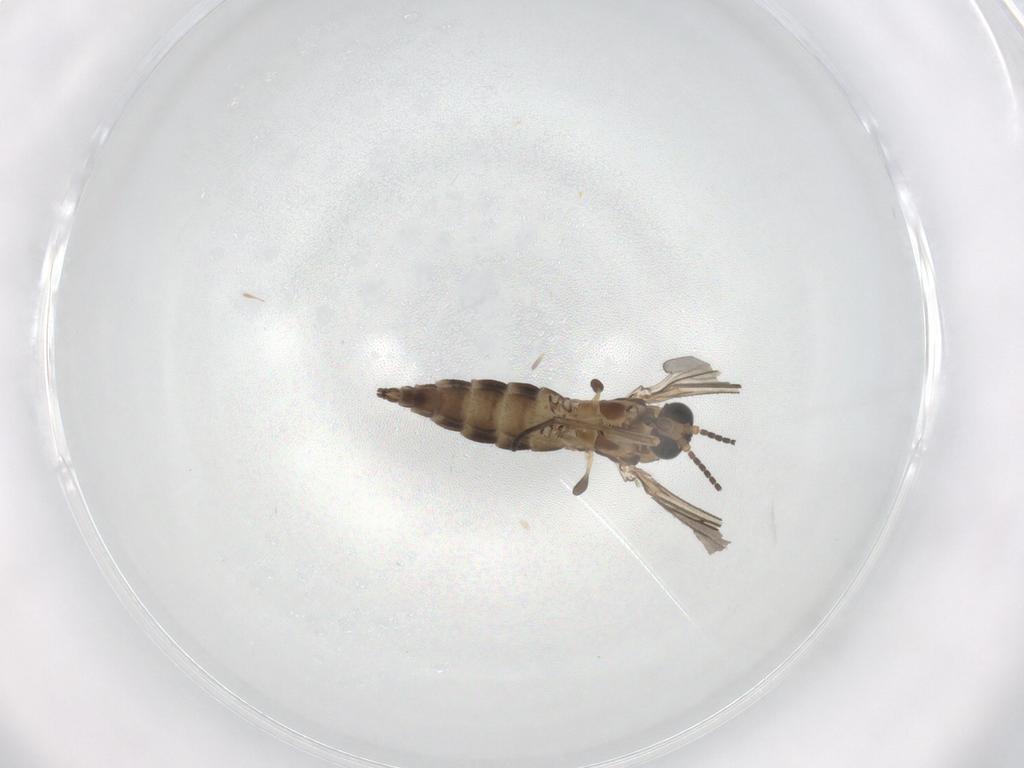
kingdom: Animalia
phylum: Arthropoda
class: Insecta
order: Diptera
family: Sciaridae
